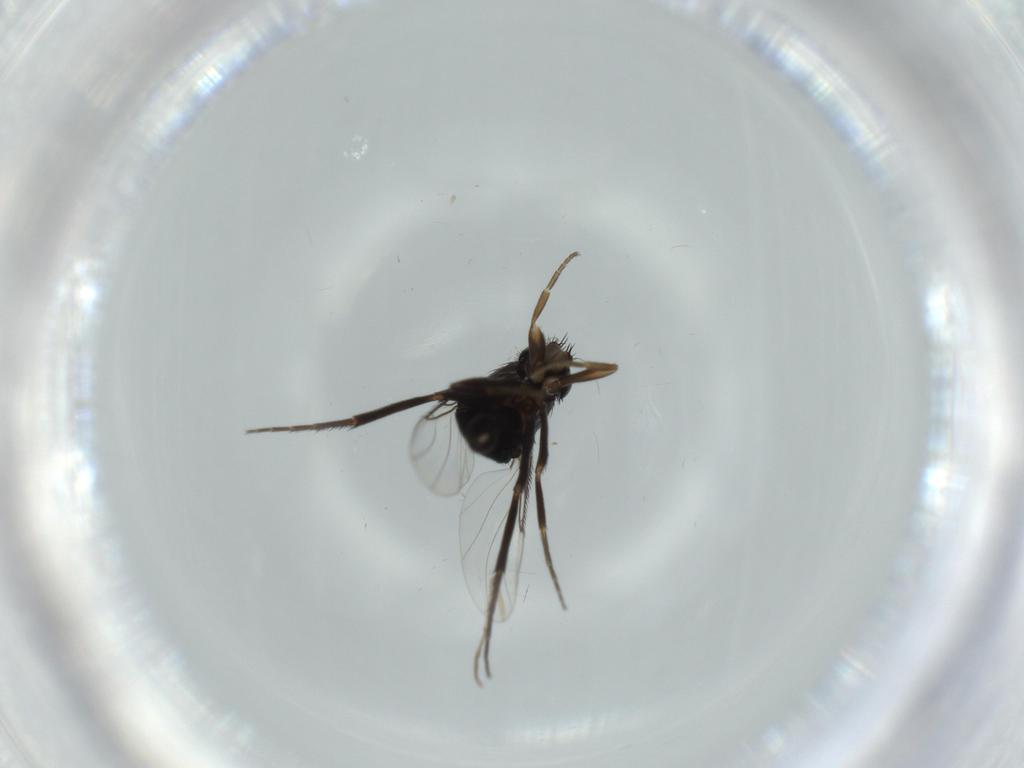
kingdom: Animalia
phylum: Arthropoda
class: Insecta
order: Diptera
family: Phoridae
